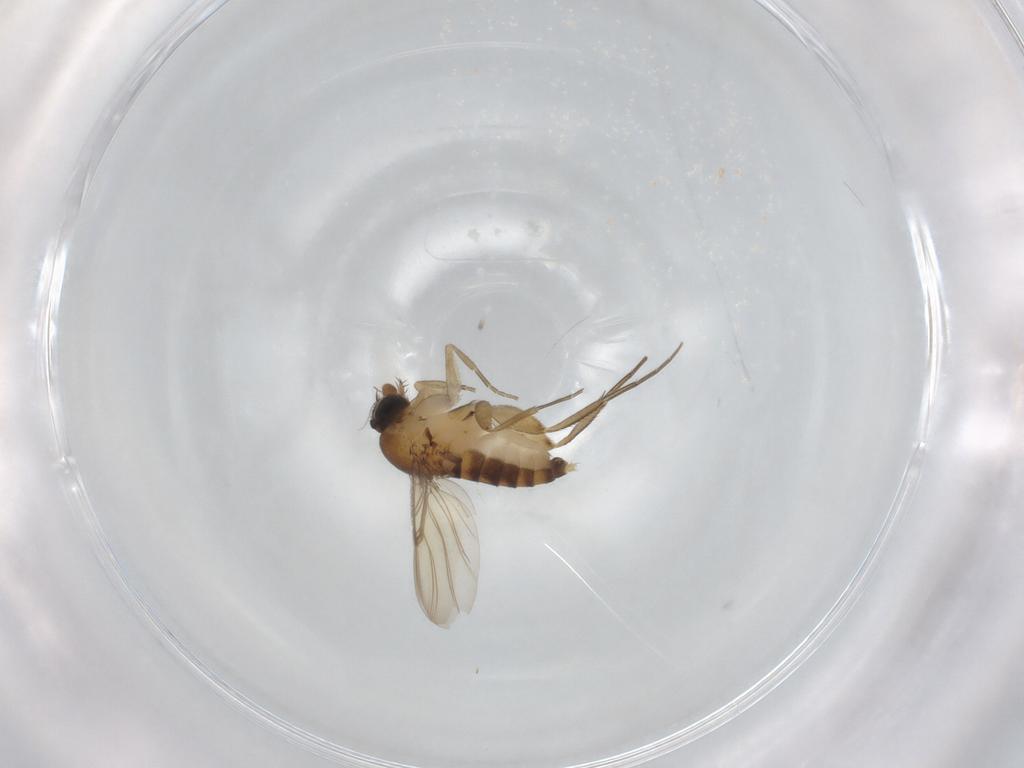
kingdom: Animalia
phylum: Arthropoda
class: Insecta
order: Diptera
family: Phoridae
